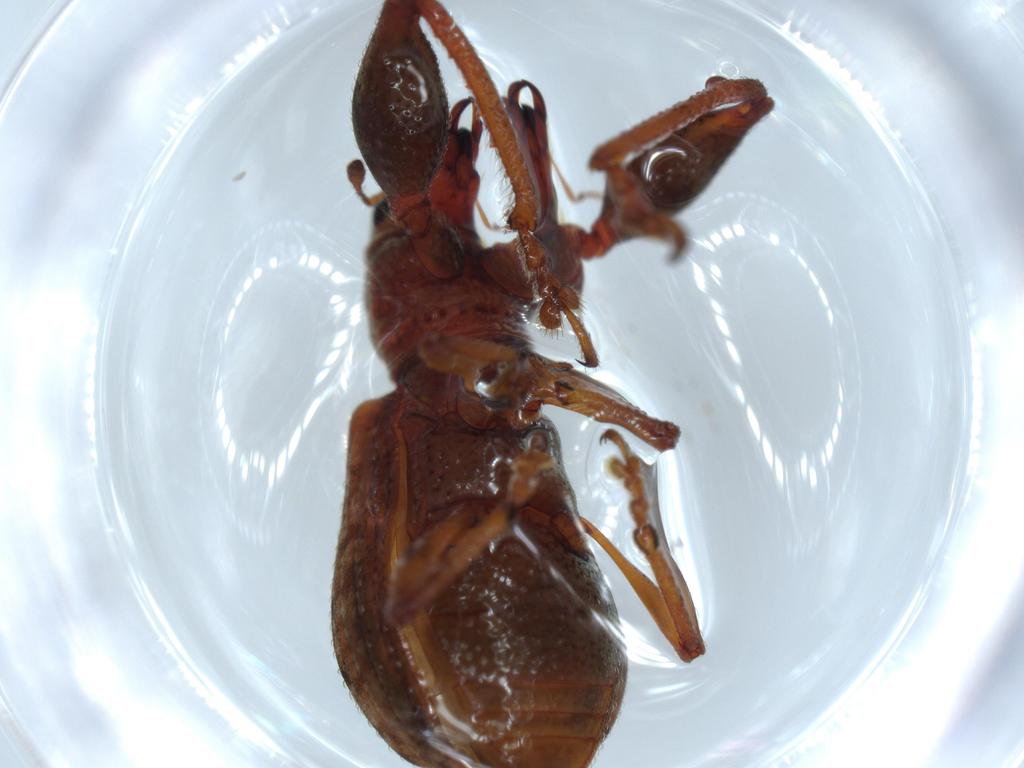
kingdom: Animalia
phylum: Arthropoda
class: Insecta
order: Coleoptera
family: Curculionidae
